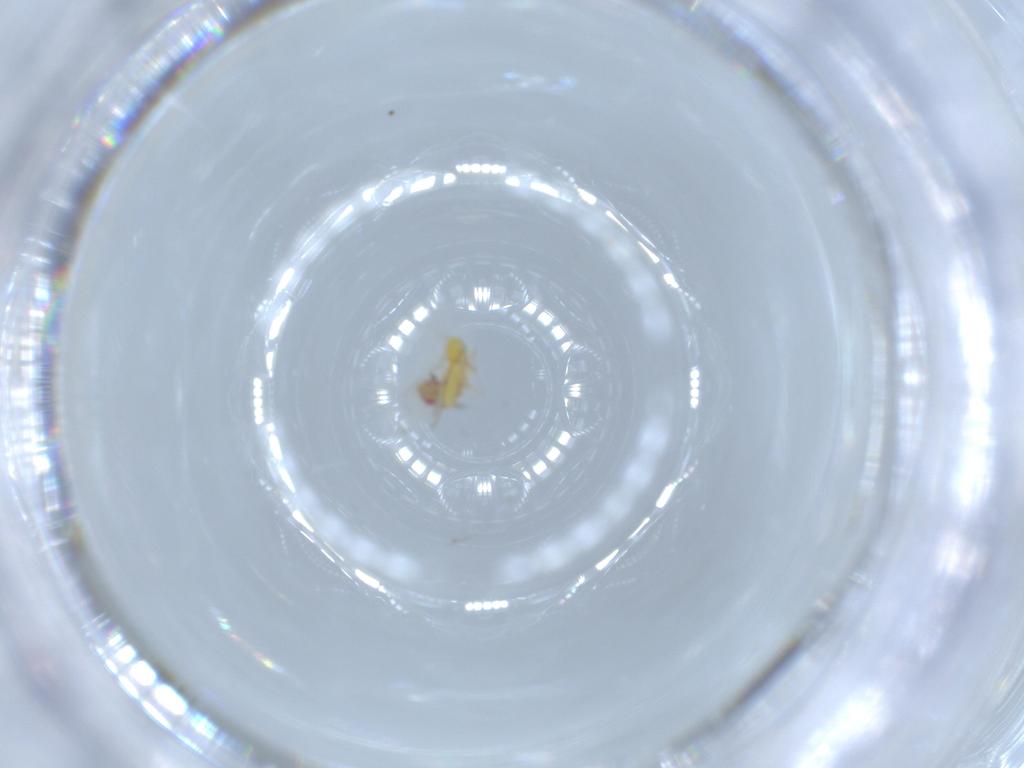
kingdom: Animalia
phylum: Arthropoda
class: Insecta
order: Hymenoptera
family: Trichogrammatidae
